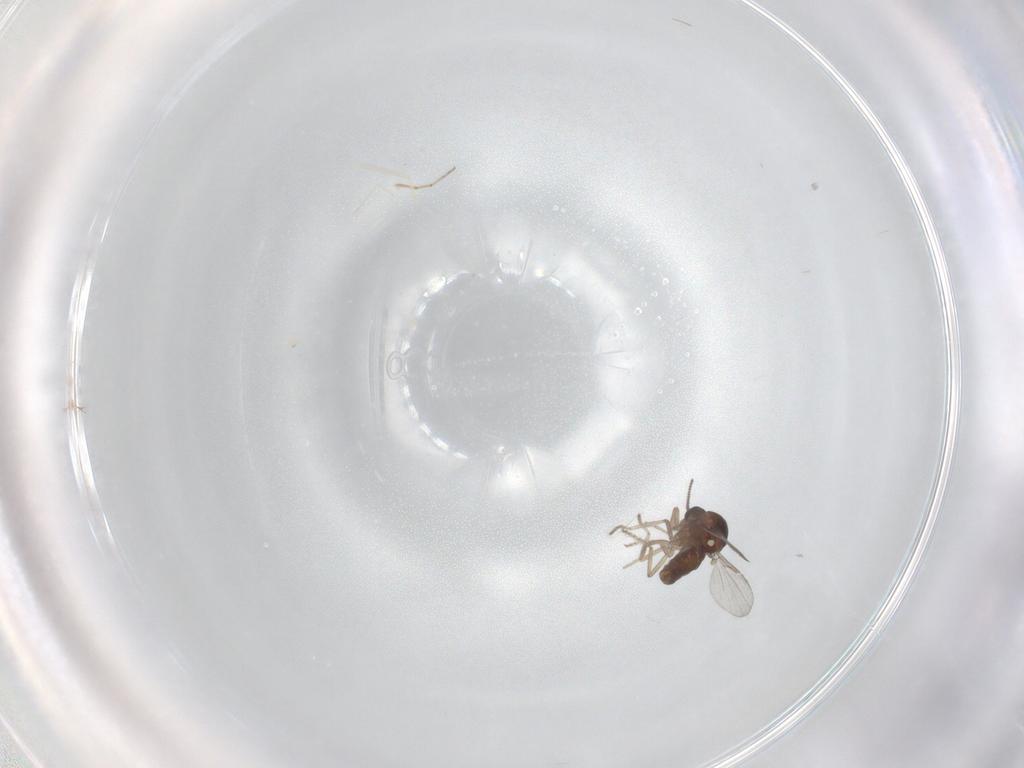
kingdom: Animalia
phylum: Arthropoda
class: Insecta
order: Diptera
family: Ceratopogonidae
